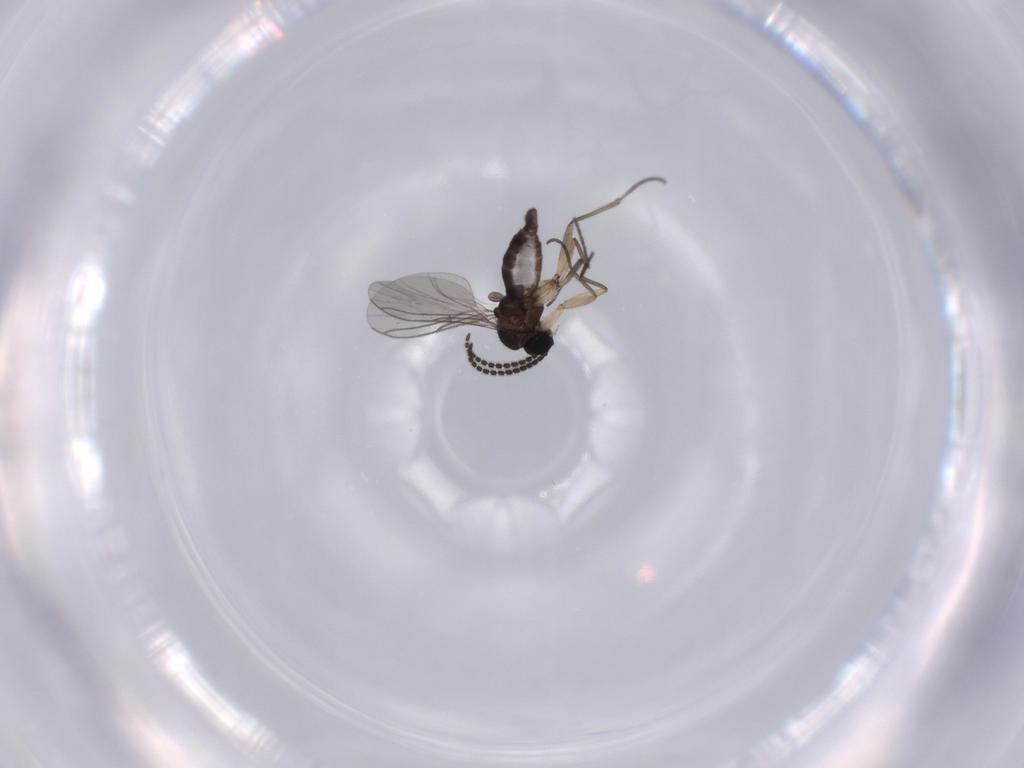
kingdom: Animalia
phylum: Arthropoda
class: Insecta
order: Diptera
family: Sciaridae
